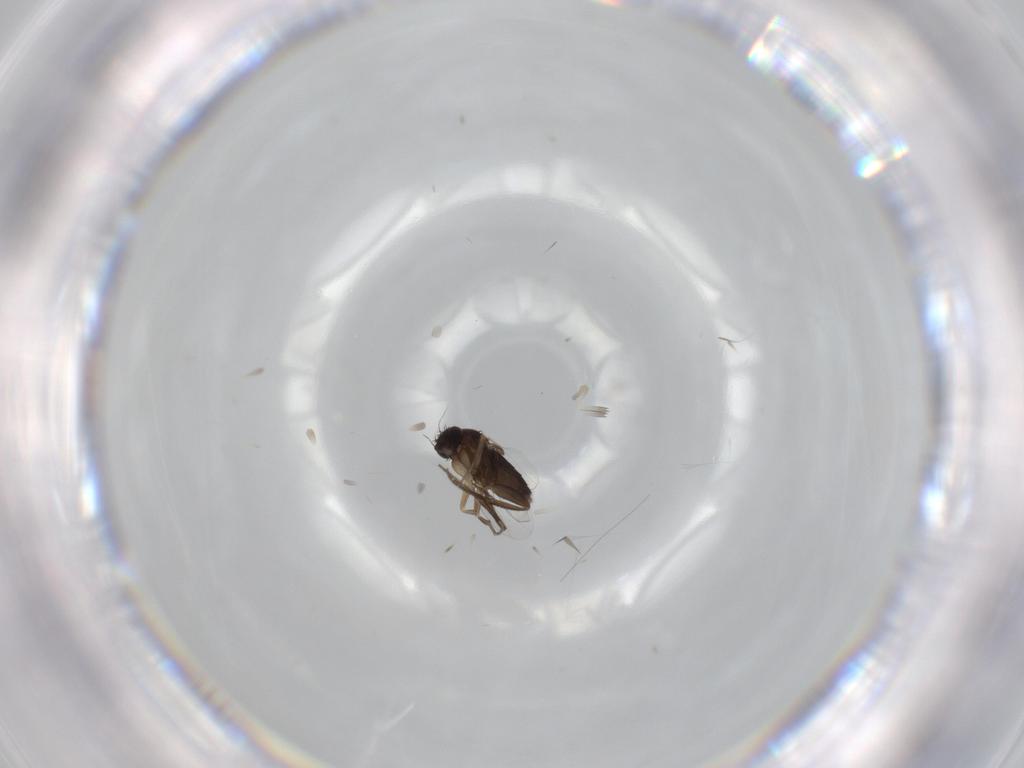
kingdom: Animalia
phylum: Arthropoda
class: Insecta
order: Diptera
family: Phoridae
